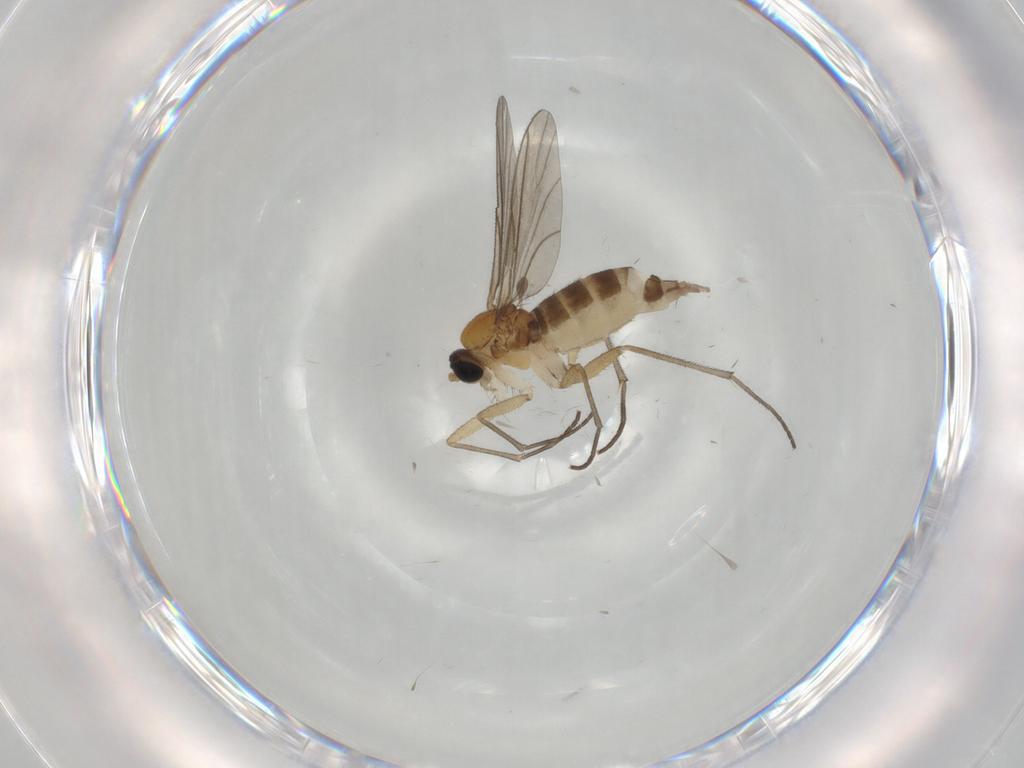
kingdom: Animalia
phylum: Arthropoda
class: Insecta
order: Diptera
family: Sciaridae
